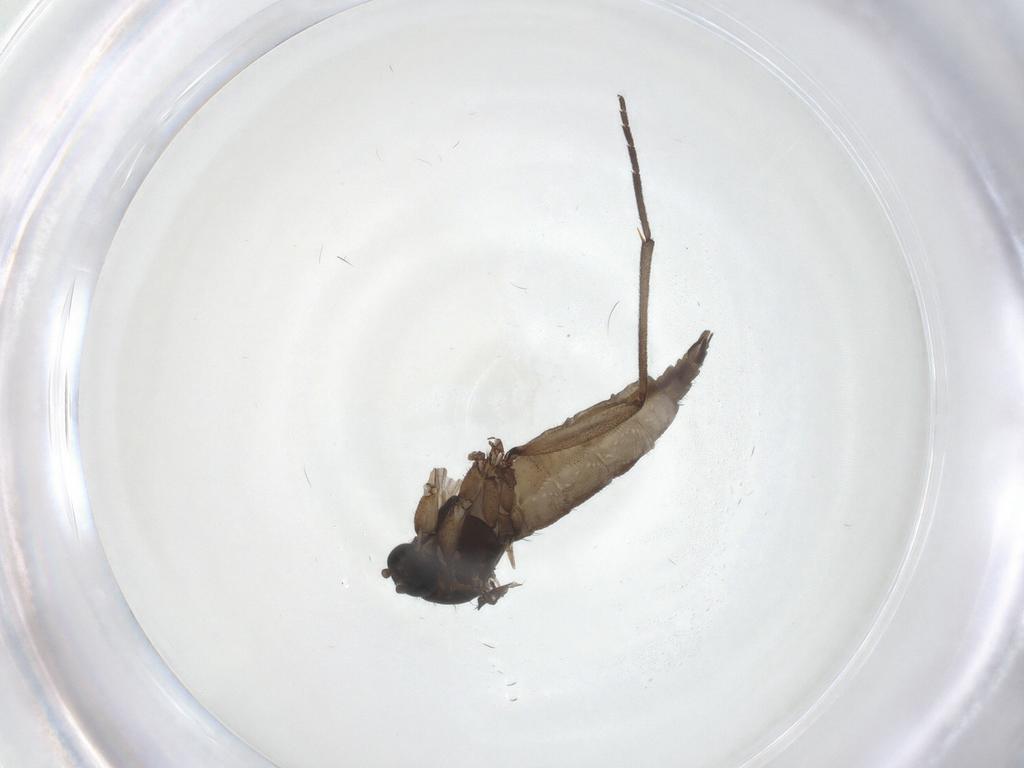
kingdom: Animalia
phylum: Arthropoda
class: Insecta
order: Diptera
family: Sciaridae
